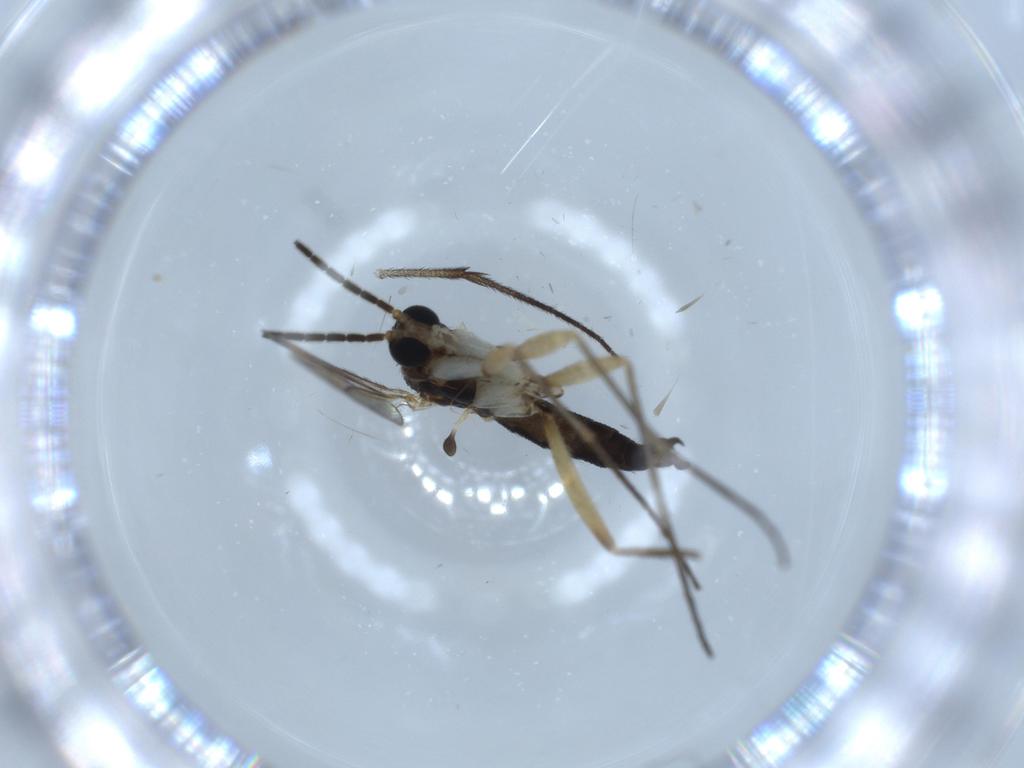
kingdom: Animalia
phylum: Arthropoda
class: Insecta
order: Diptera
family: Sciaridae
